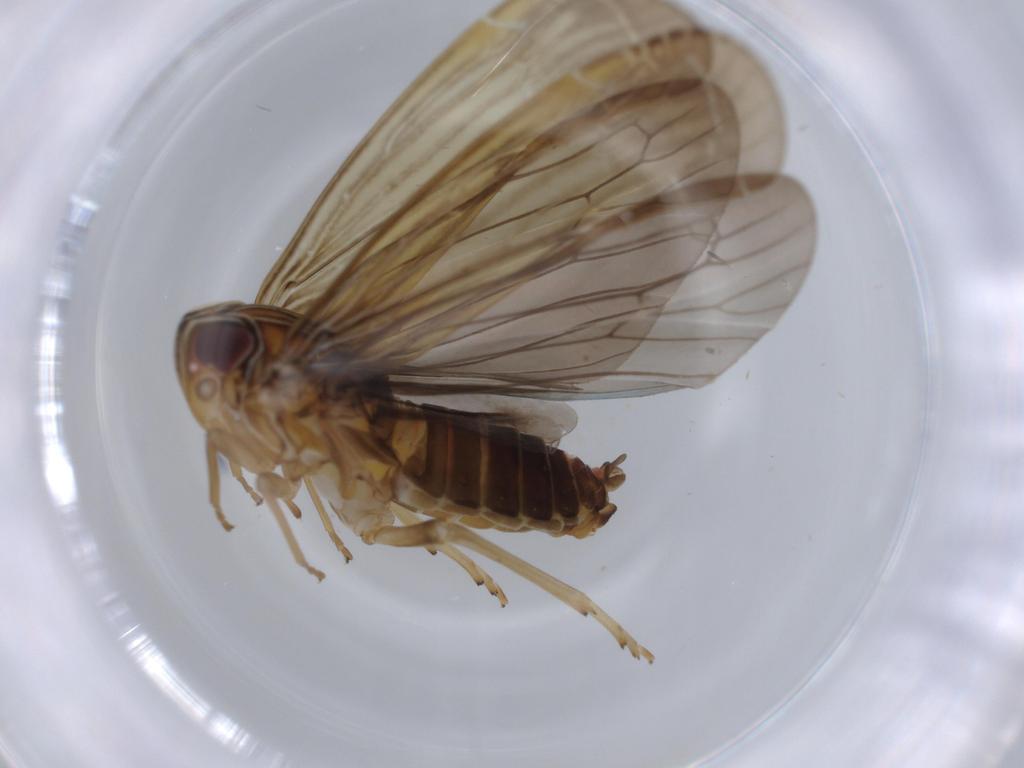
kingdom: Animalia
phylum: Arthropoda
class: Insecta
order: Hemiptera
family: Achilidae
